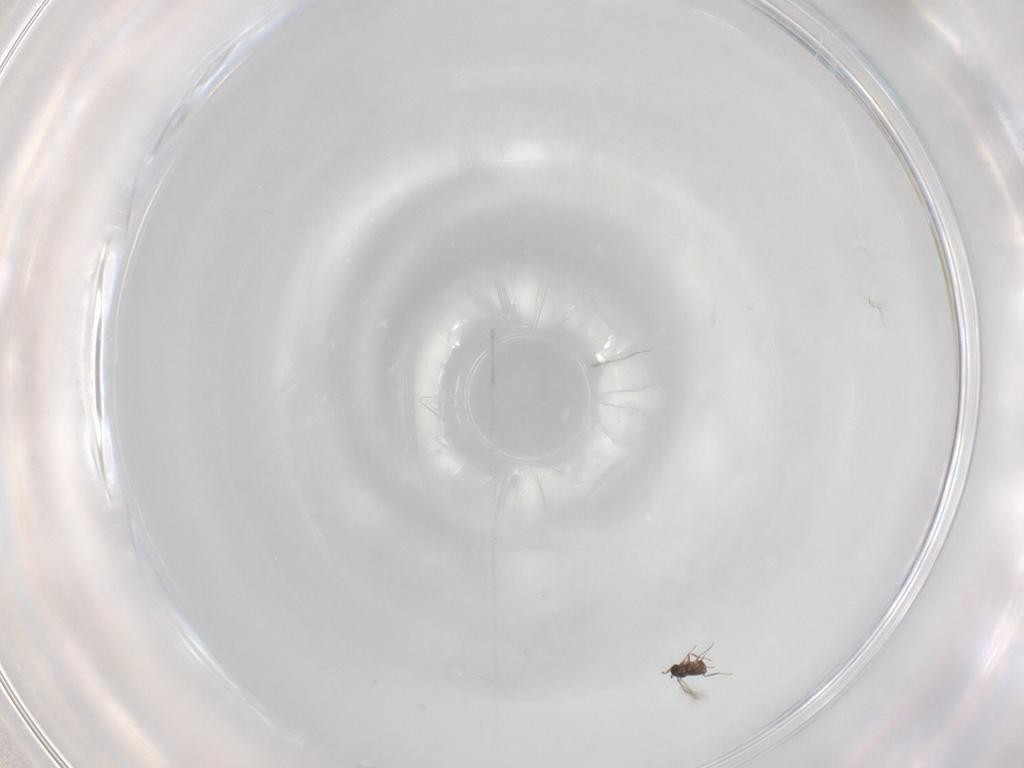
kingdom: Animalia
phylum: Arthropoda
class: Insecta
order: Hymenoptera
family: Mymaridae
